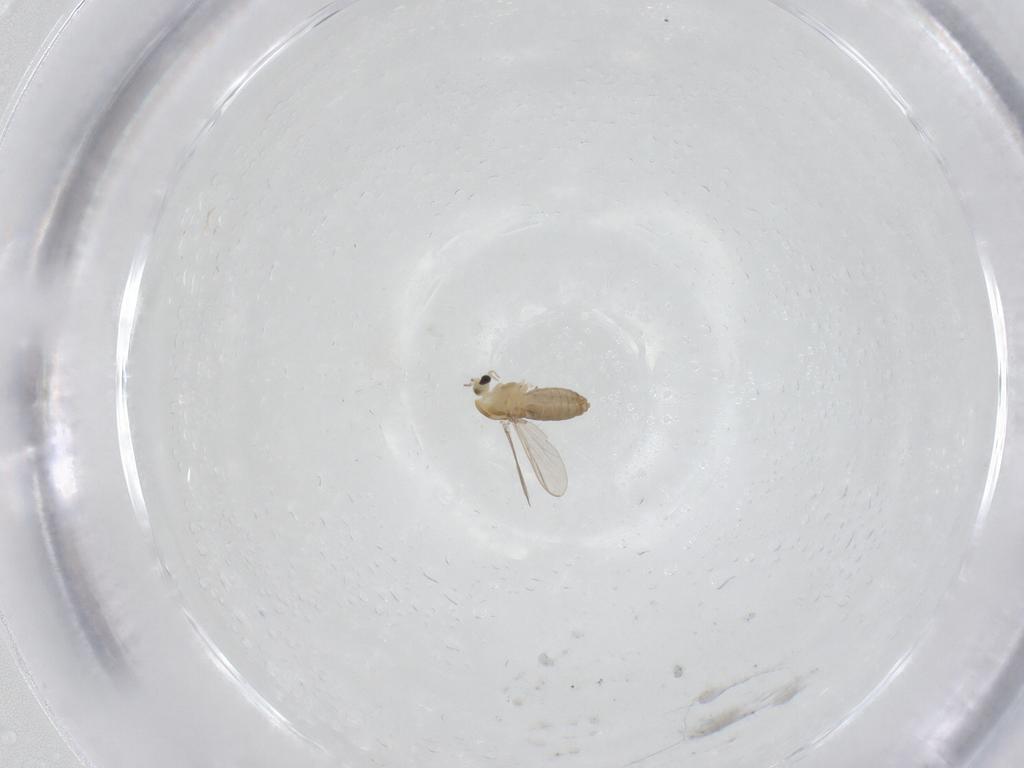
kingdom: Animalia
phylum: Arthropoda
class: Insecta
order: Diptera
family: Chironomidae
